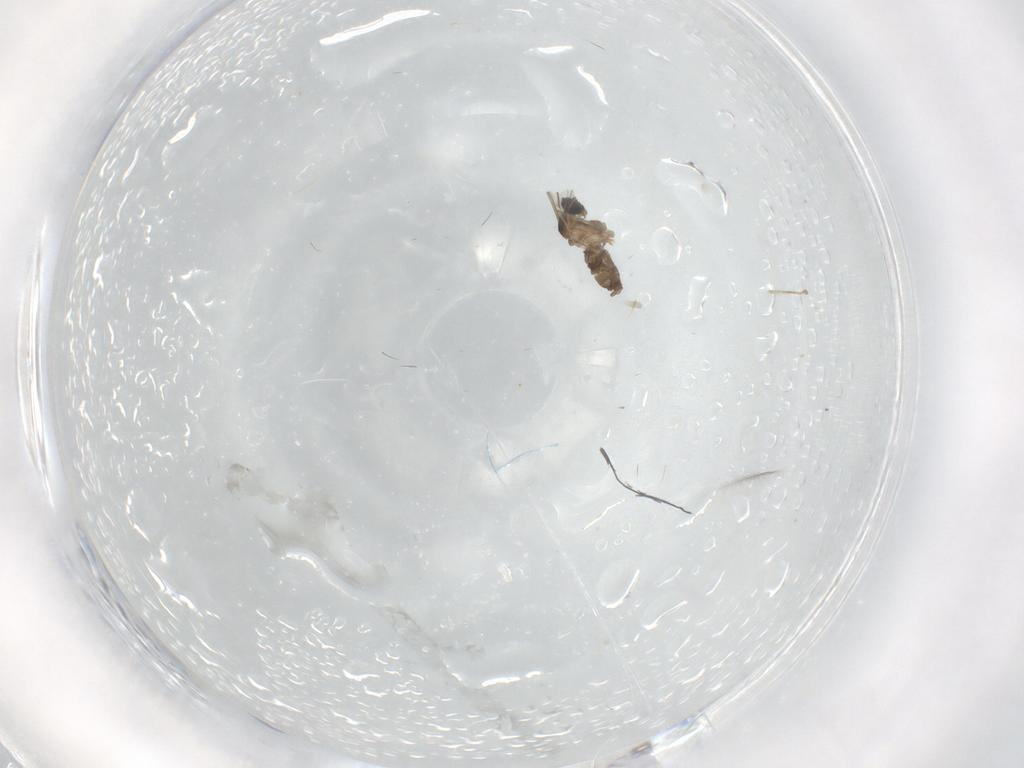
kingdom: Animalia
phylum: Arthropoda
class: Insecta
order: Diptera
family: Cecidomyiidae
